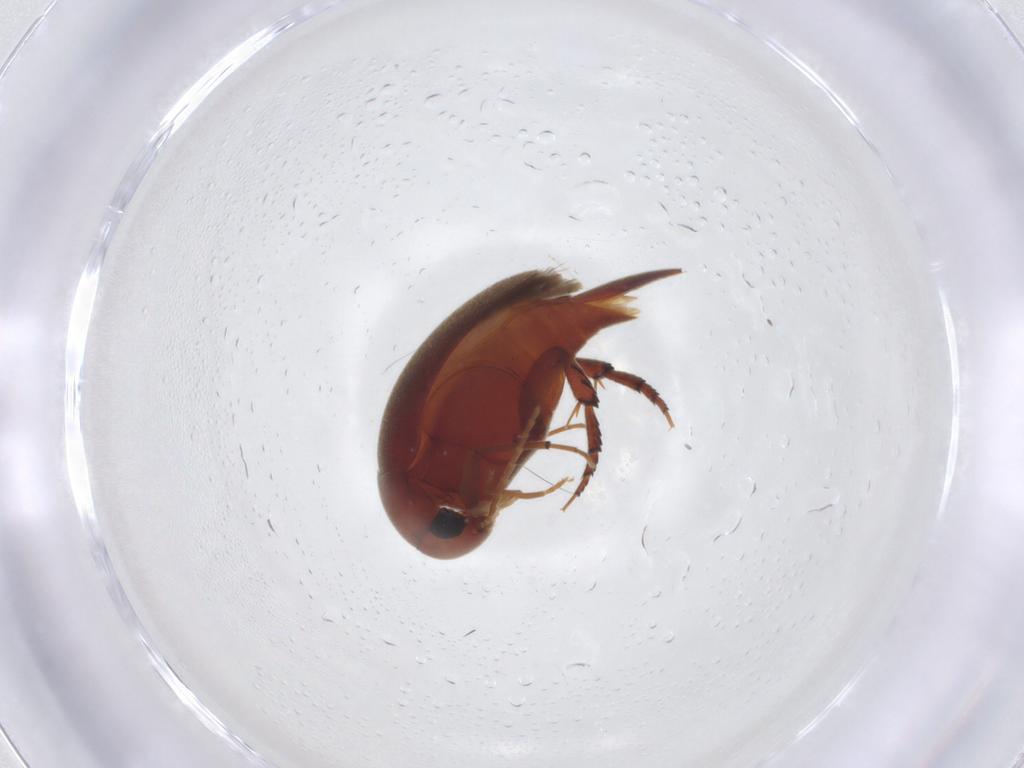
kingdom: Animalia
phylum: Arthropoda
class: Insecta
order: Coleoptera
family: Mordellidae
